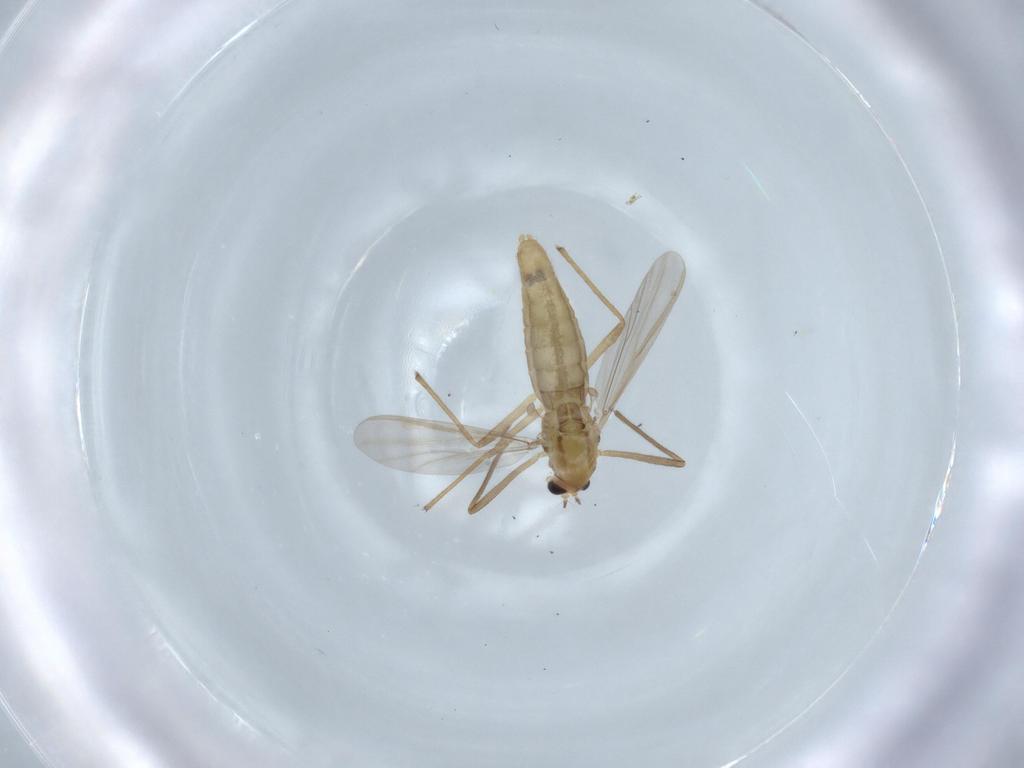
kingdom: Animalia
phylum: Arthropoda
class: Insecta
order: Diptera
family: Chironomidae
